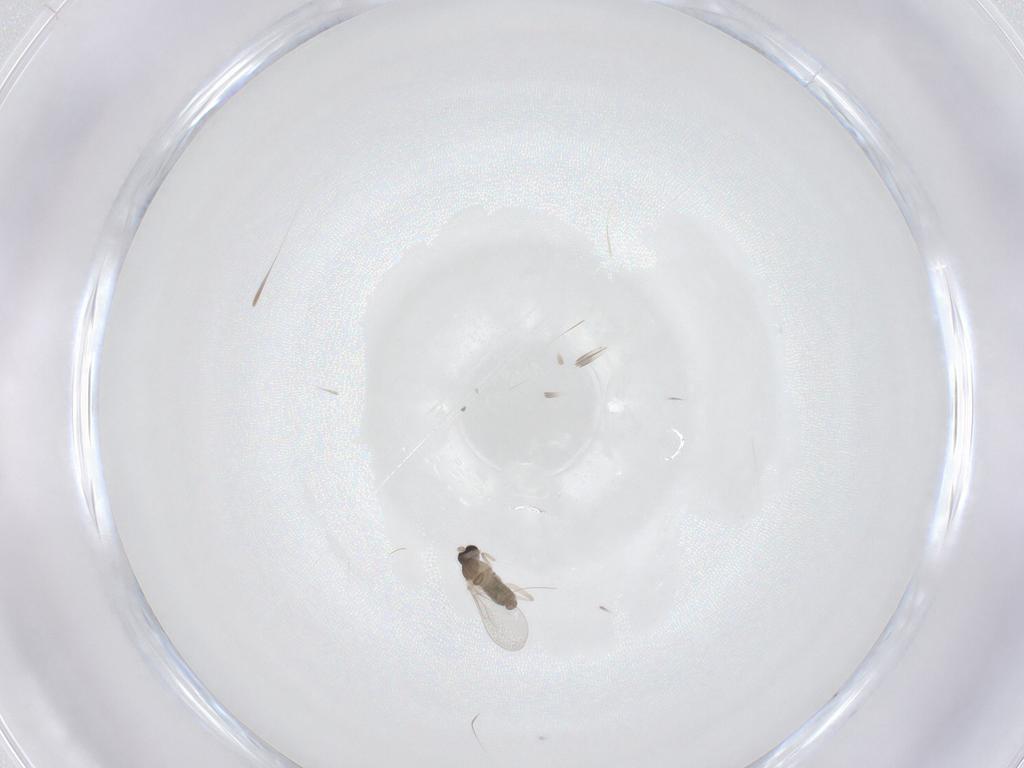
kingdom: Animalia
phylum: Arthropoda
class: Insecta
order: Diptera
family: Cecidomyiidae
